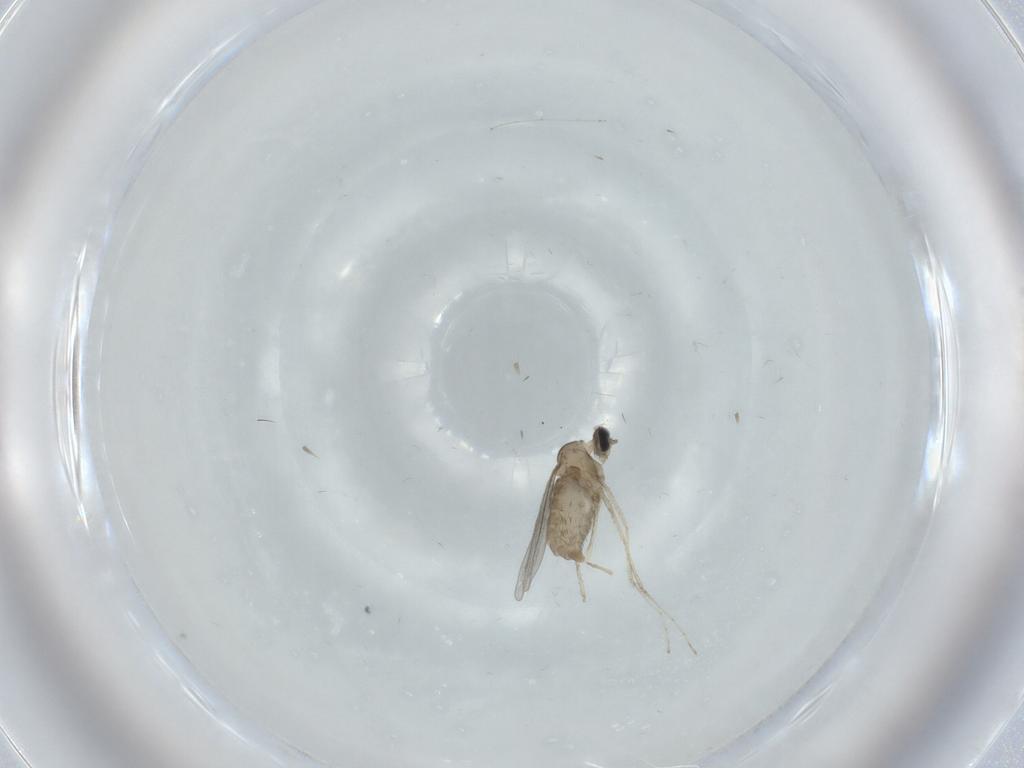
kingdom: Animalia
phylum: Arthropoda
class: Insecta
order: Diptera
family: Cecidomyiidae
